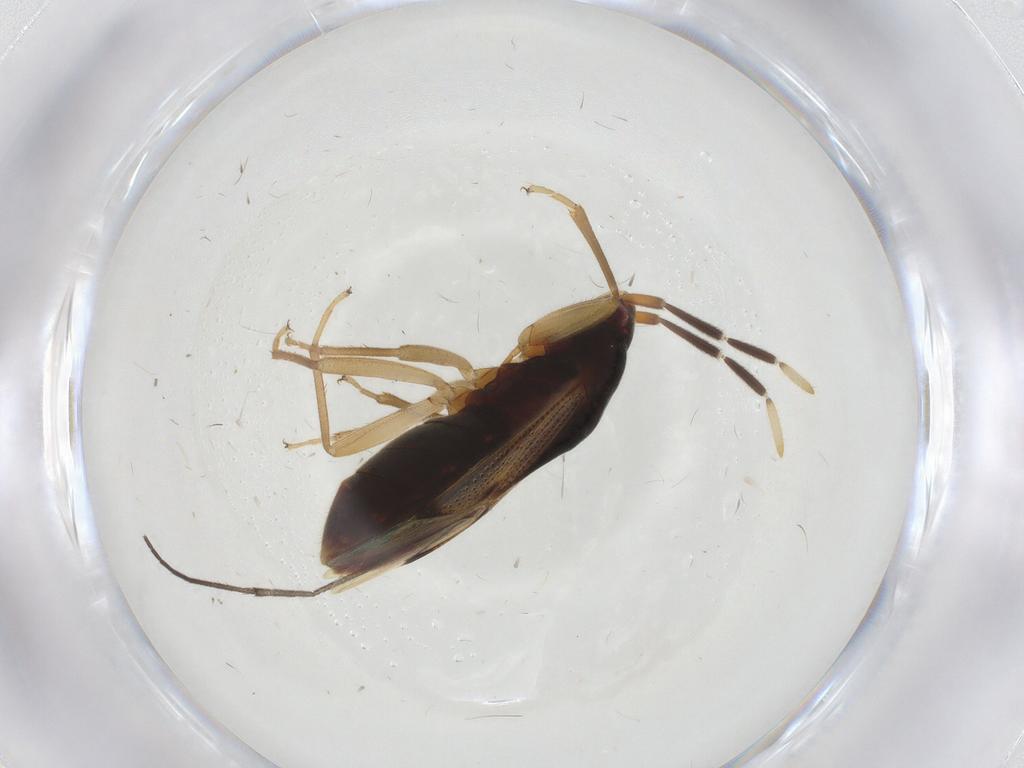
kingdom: Animalia
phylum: Arthropoda
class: Insecta
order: Hemiptera
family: Rhyparochromidae
